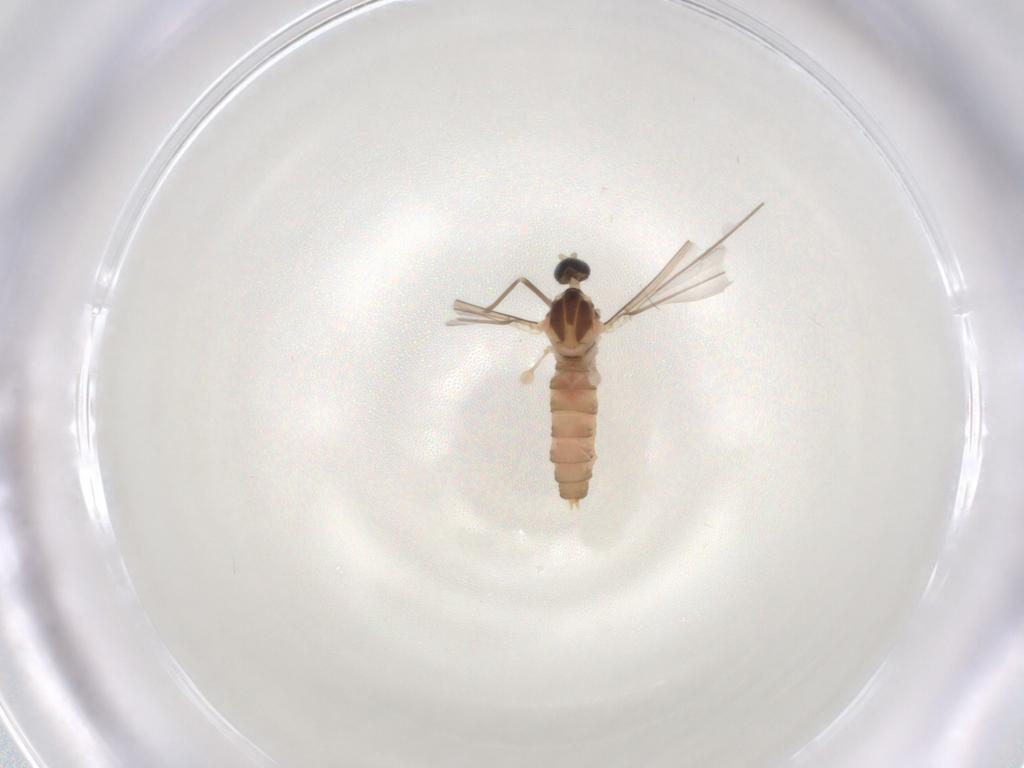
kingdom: Animalia
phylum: Arthropoda
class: Insecta
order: Diptera
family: Cecidomyiidae
